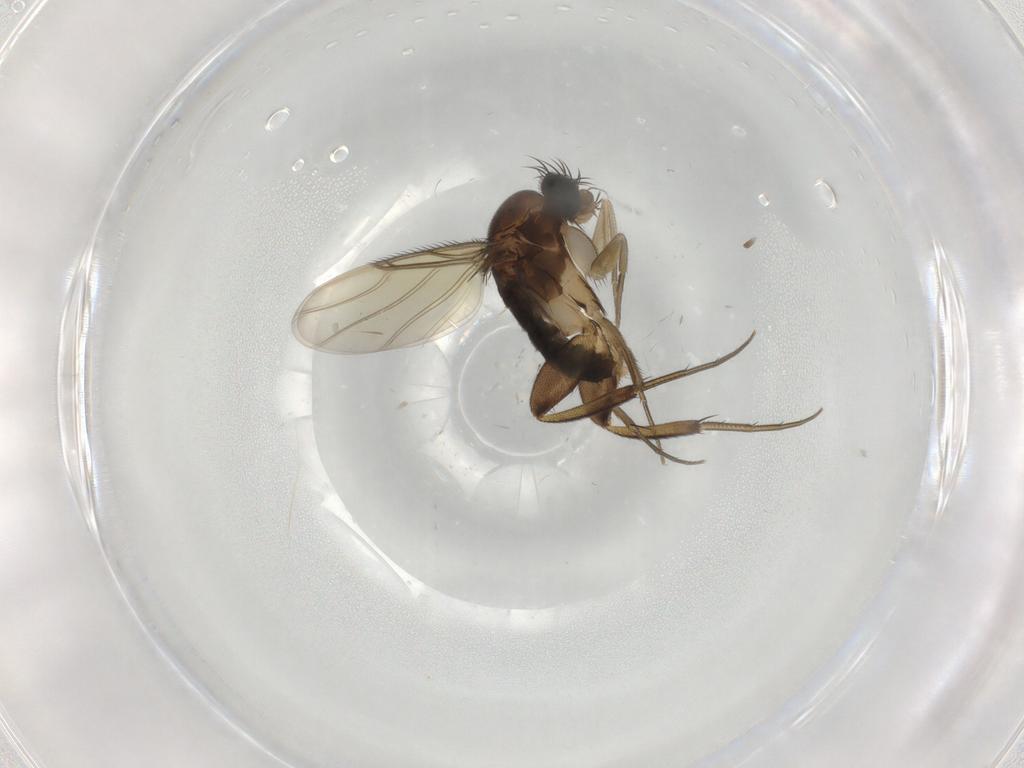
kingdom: Animalia
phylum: Arthropoda
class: Insecta
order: Diptera
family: Phoridae
